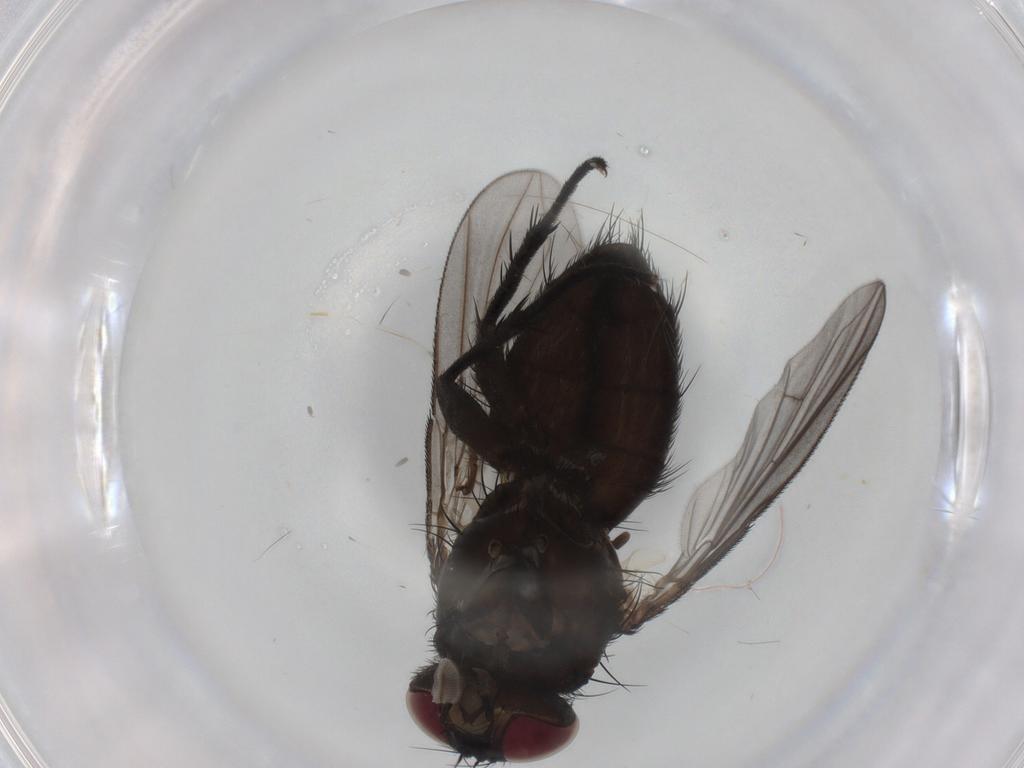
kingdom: Animalia
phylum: Arthropoda
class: Insecta
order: Diptera
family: Calliphoridae
